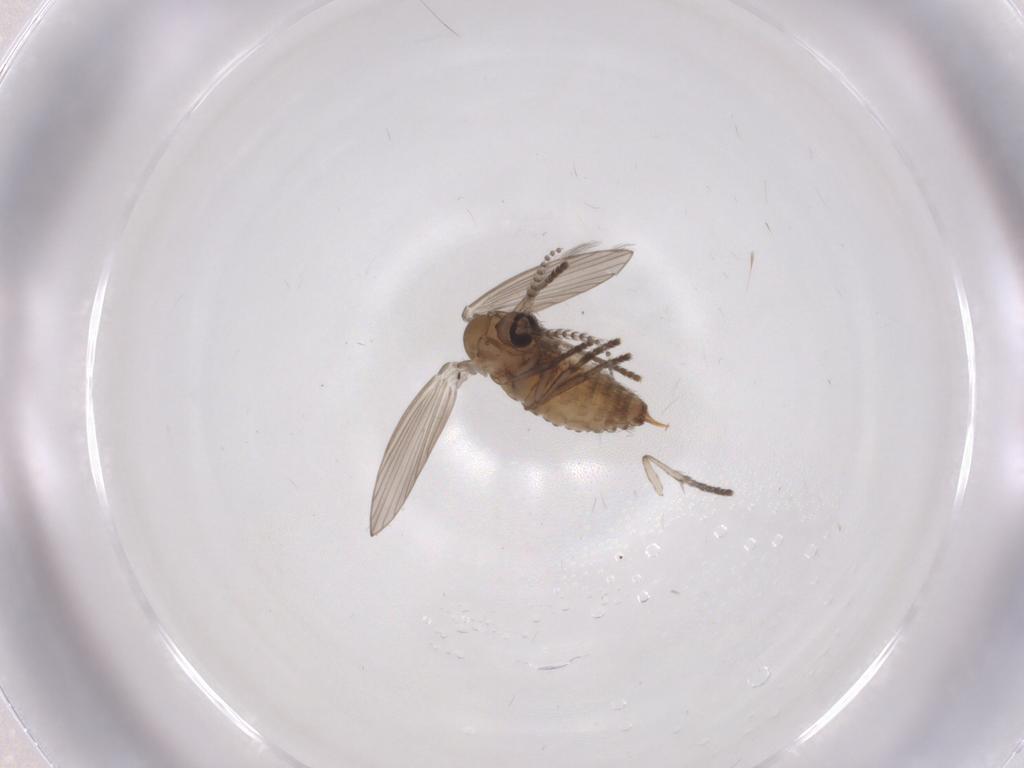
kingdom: Animalia
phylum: Arthropoda
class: Insecta
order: Diptera
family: Psychodidae
